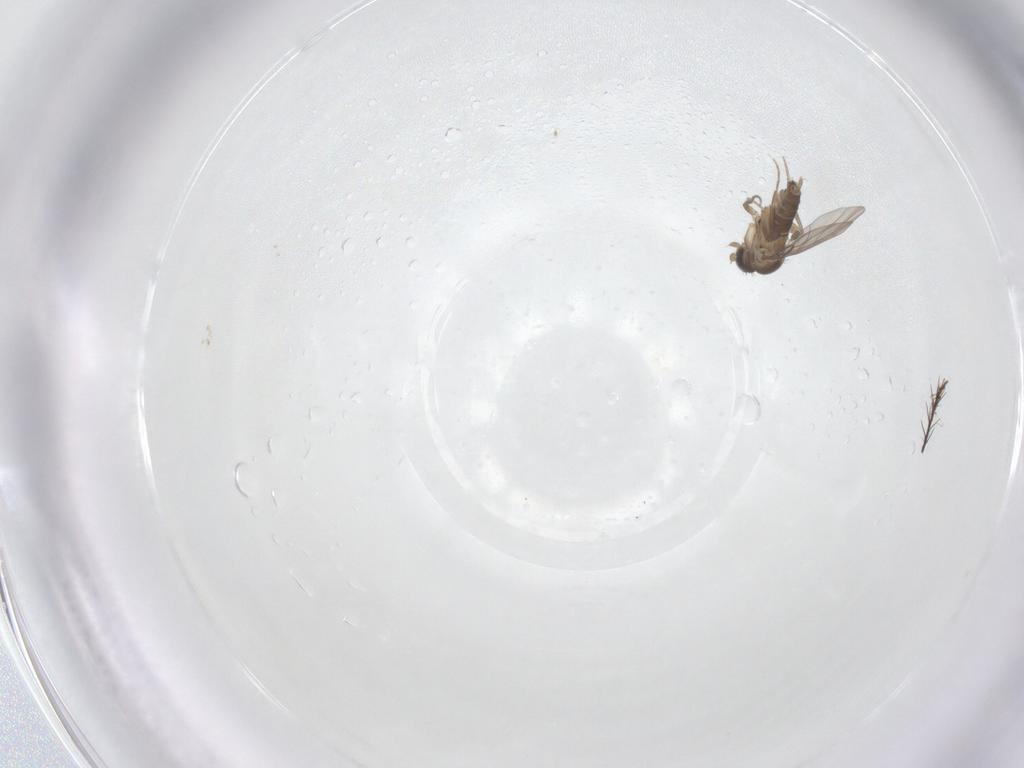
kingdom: Animalia
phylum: Arthropoda
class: Insecta
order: Diptera
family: Phoridae
